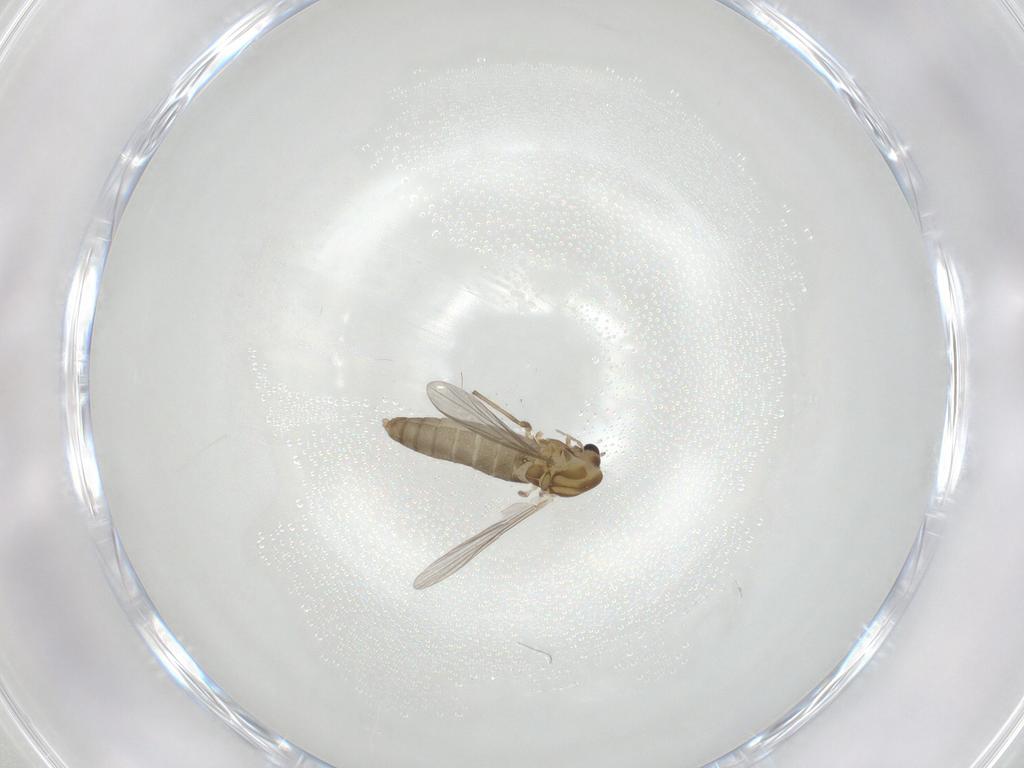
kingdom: Animalia
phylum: Arthropoda
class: Insecta
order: Diptera
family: Chironomidae
